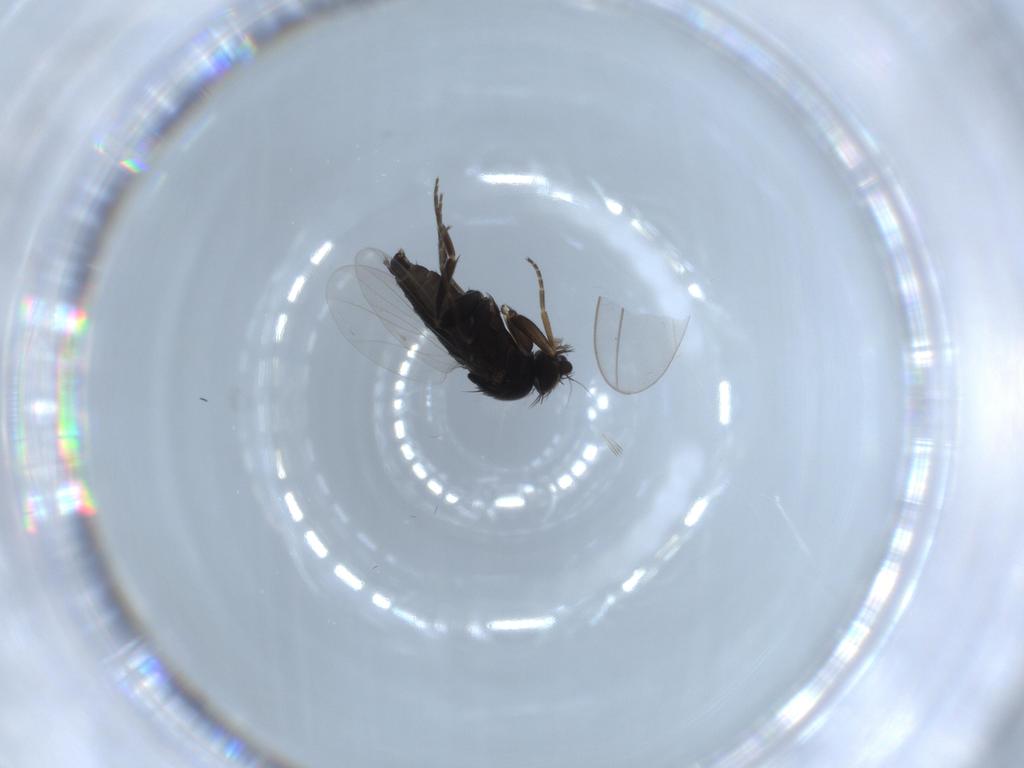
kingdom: Animalia
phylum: Arthropoda
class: Insecta
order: Diptera
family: Phoridae
